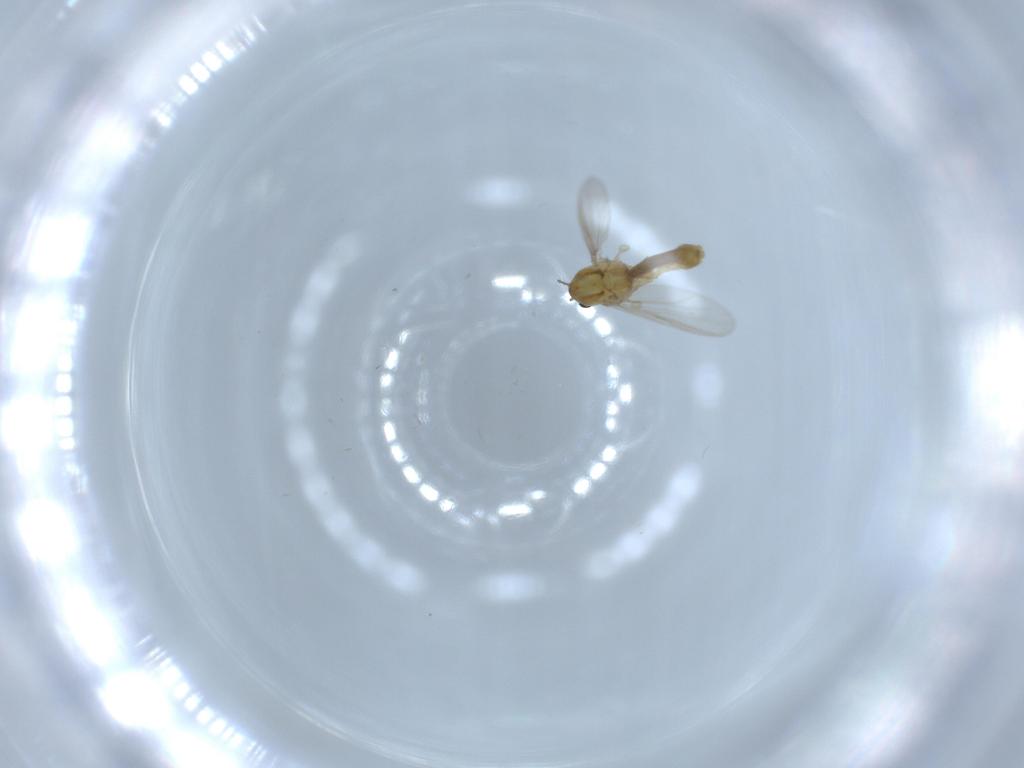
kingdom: Animalia
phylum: Arthropoda
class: Insecta
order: Diptera
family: Chironomidae
